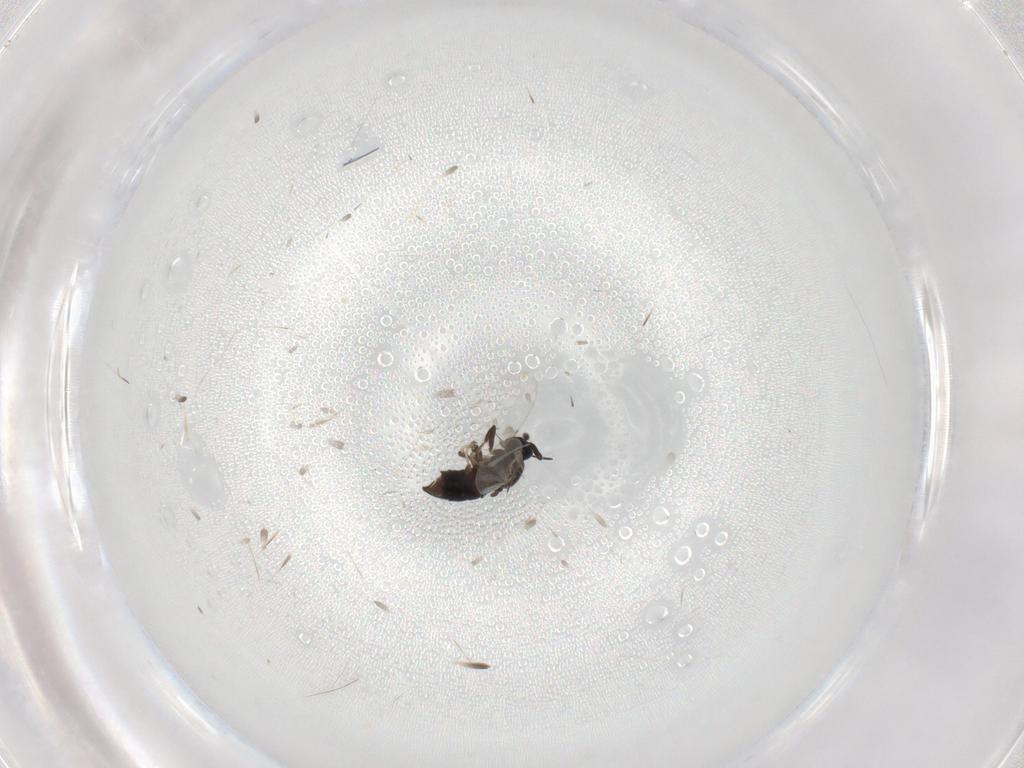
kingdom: Animalia
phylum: Arthropoda
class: Insecta
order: Diptera
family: Scatopsidae
